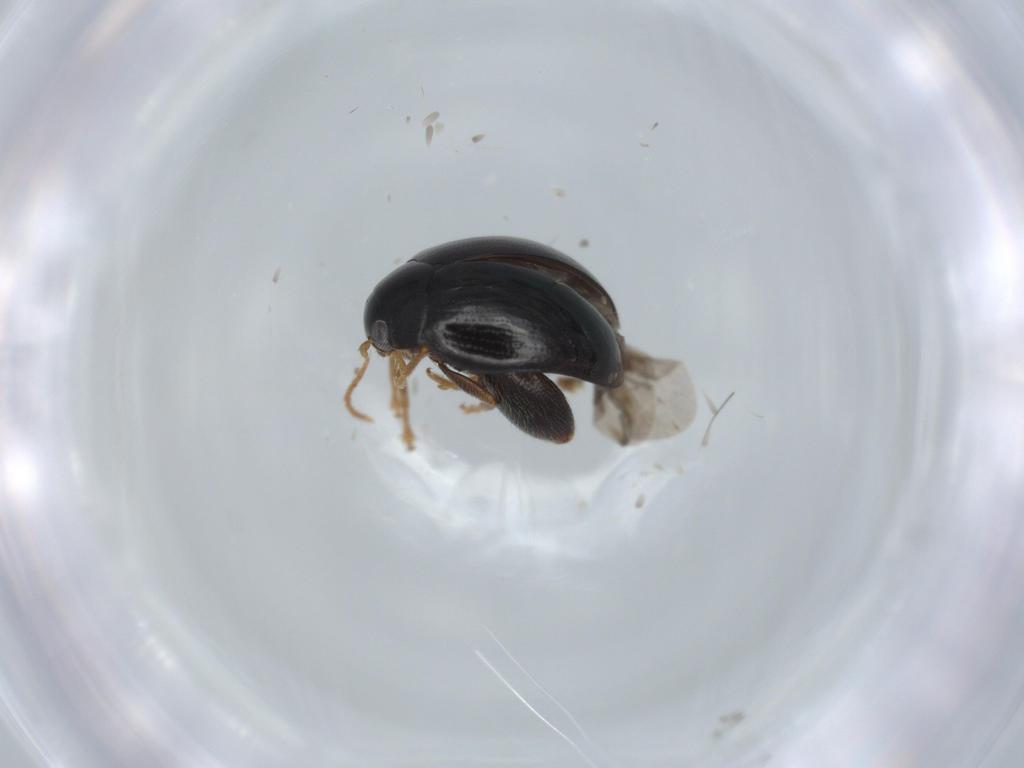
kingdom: Animalia
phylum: Arthropoda
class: Insecta
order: Coleoptera
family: Chrysomelidae
